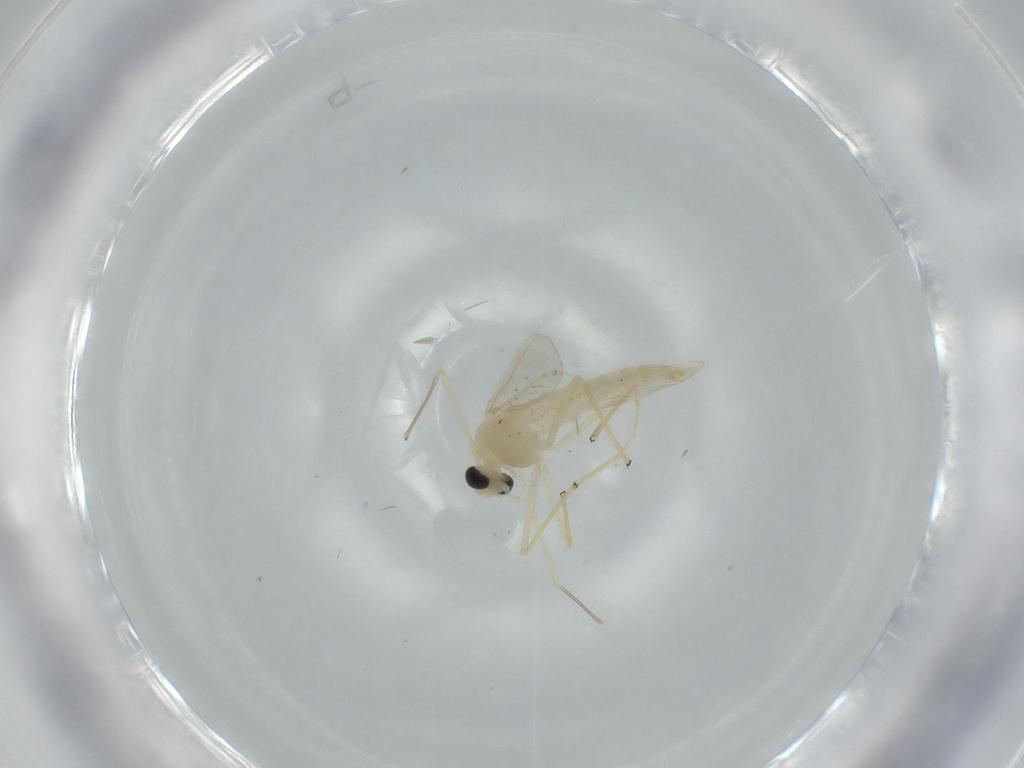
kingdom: Animalia
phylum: Arthropoda
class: Insecta
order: Diptera
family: Chironomidae
